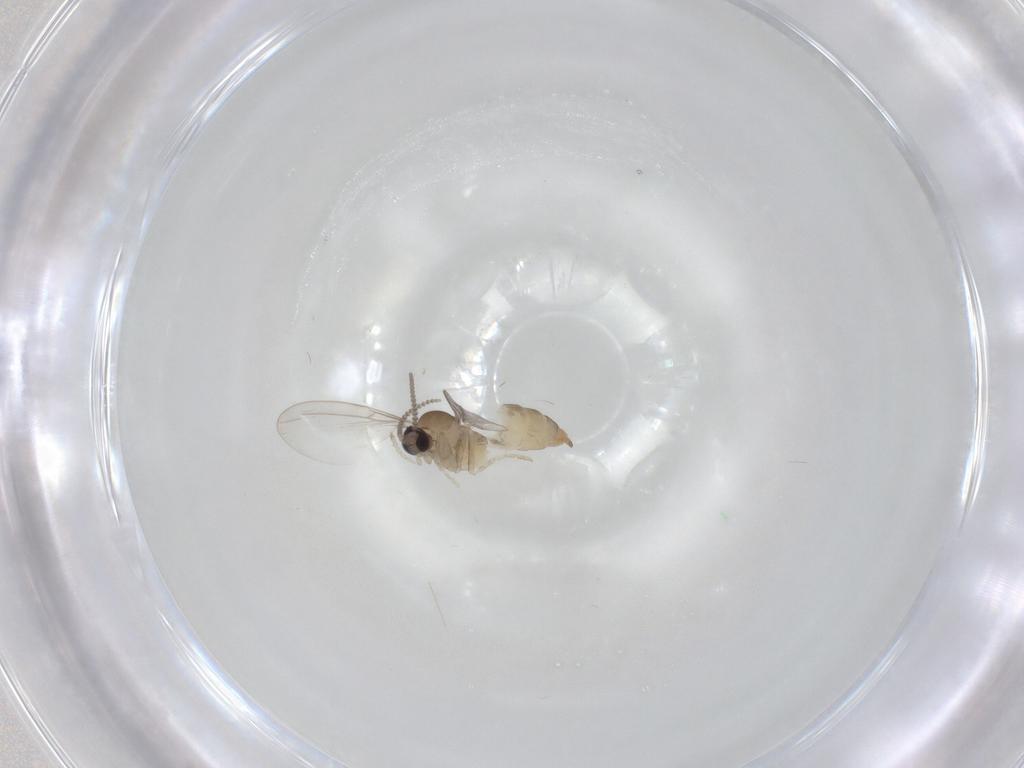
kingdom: Animalia
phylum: Arthropoda
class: Insecta
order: Diptera
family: Cecidomyiidae
